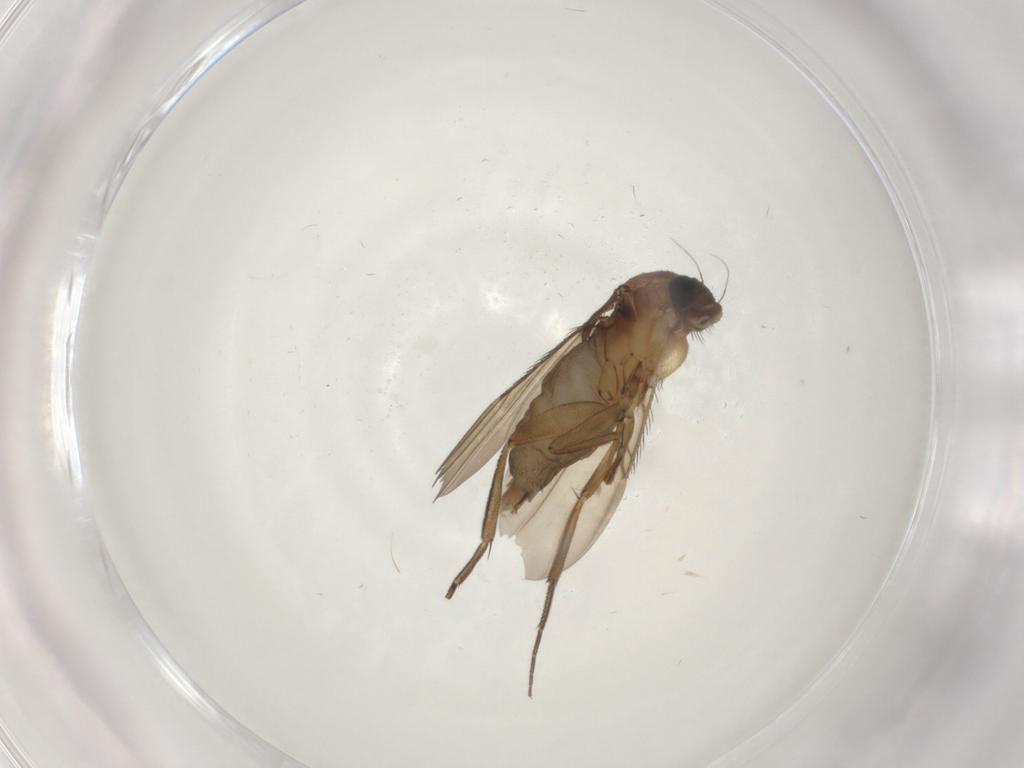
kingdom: Animalia
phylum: Arthropoda
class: Insecta
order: Diptera
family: Phoridae
